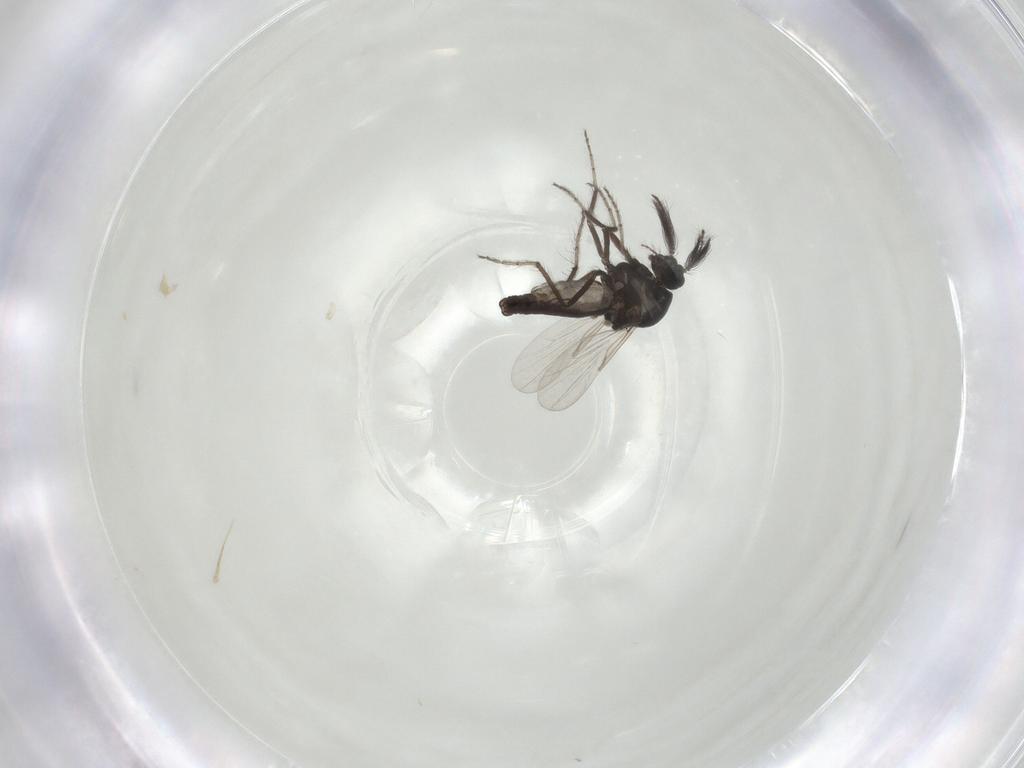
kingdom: Animalia
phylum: Arthropoda
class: Insecta
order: Diptera
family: Ceratopogonidae
